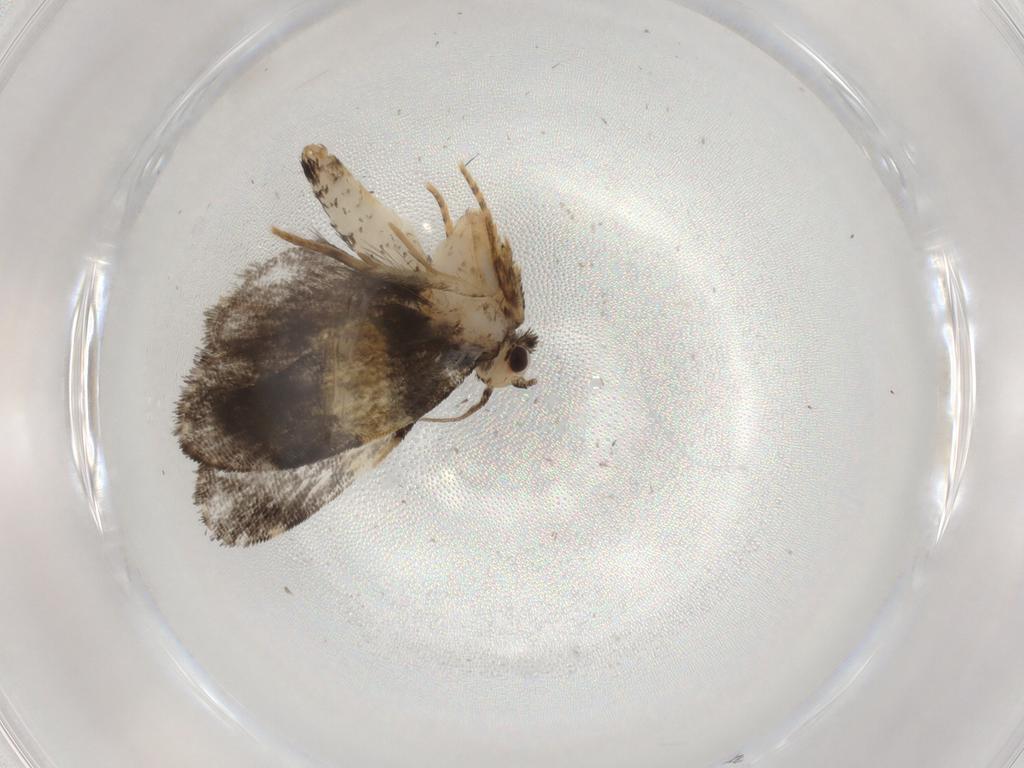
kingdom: Animalia
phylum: Arthropoda
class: Insecta
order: Lepidoptera
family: Psychidae
